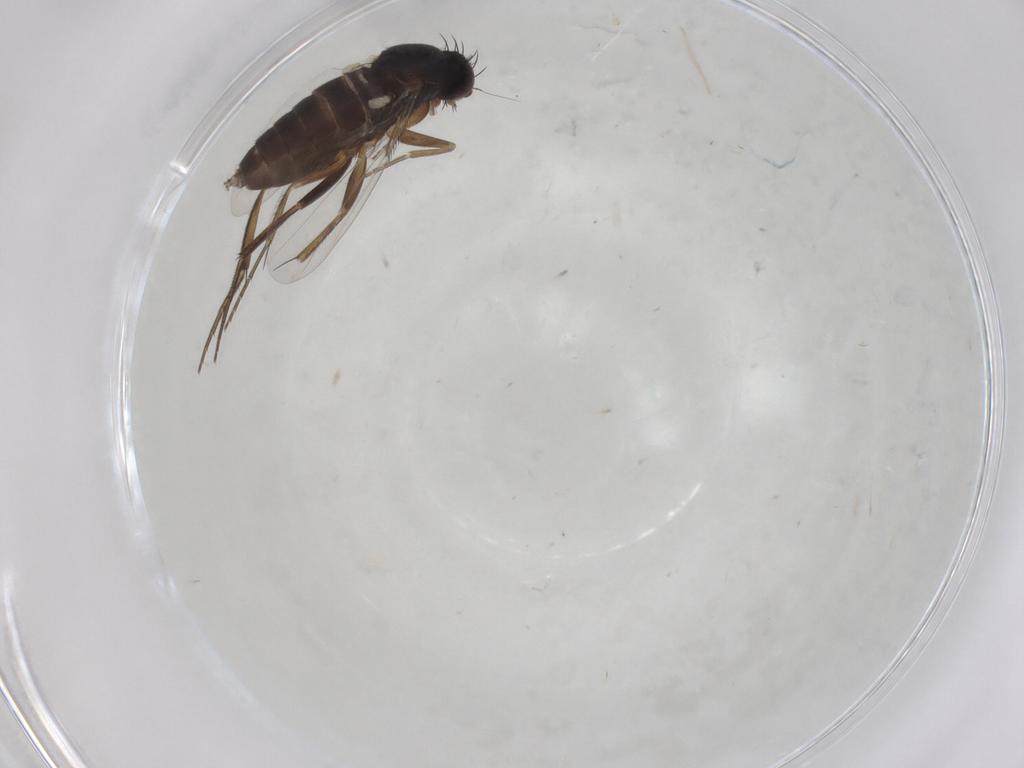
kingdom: Animalia
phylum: Arthropoda
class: Insecta
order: Diptera
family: Phoridae
